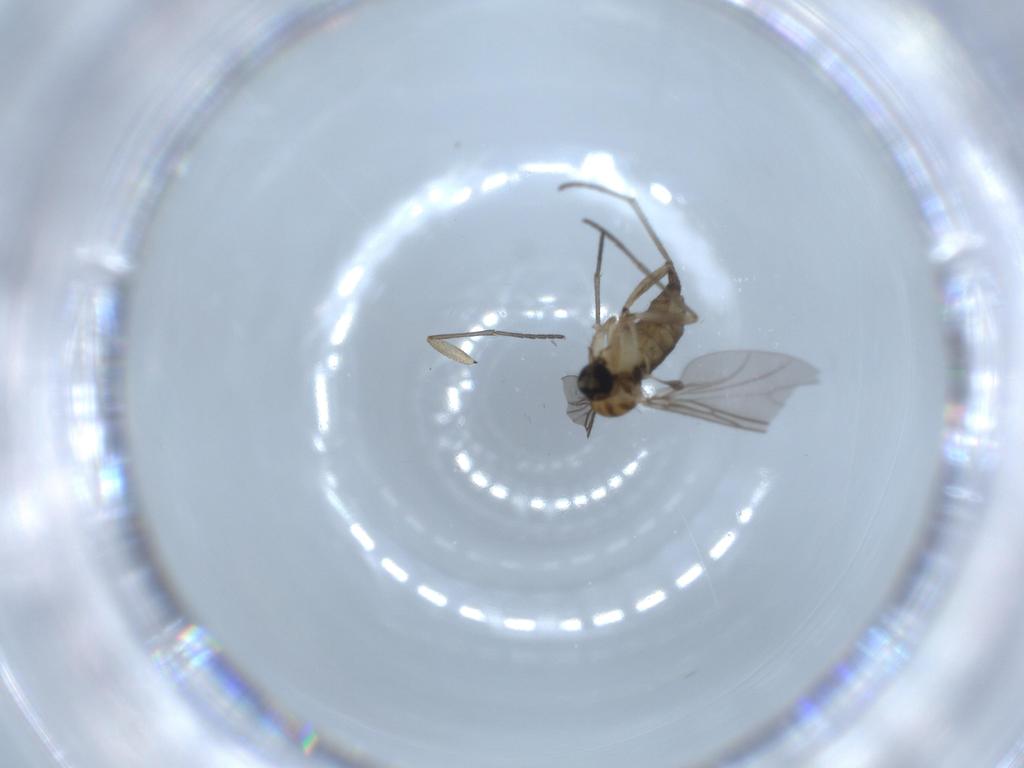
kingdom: Animalia
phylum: Arthropoda
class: Insecta
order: Diptera
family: Sciaridae
